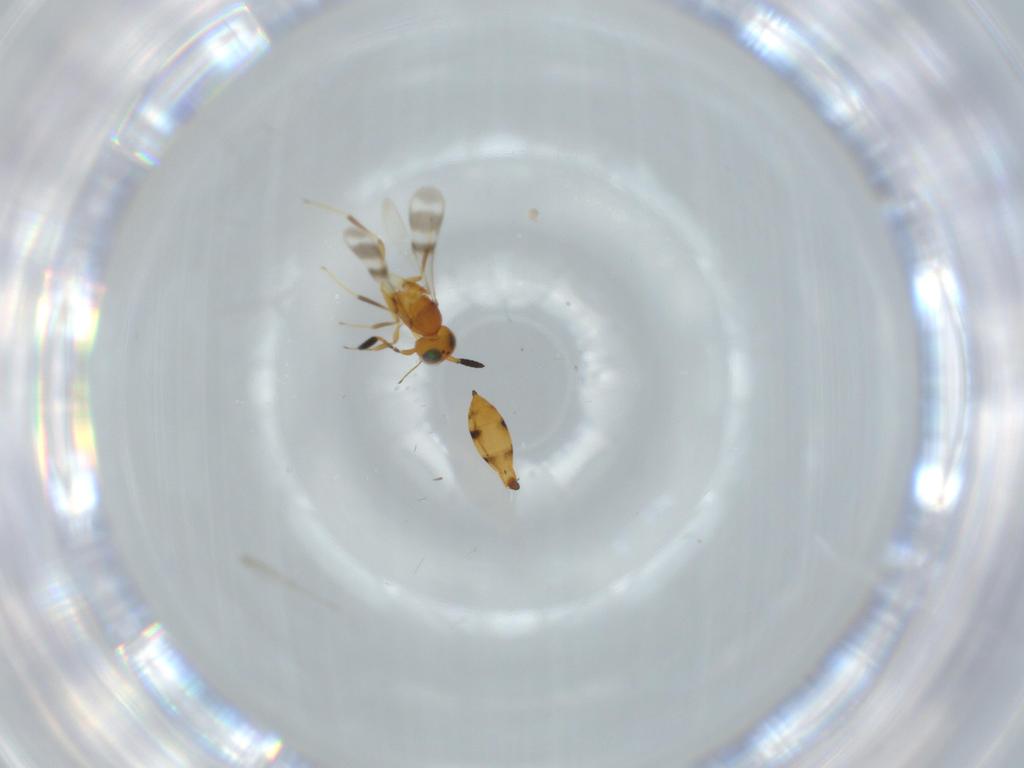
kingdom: Animalia
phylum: Arthropoda
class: Insecta
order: Hymenoptera
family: Scelionidae
